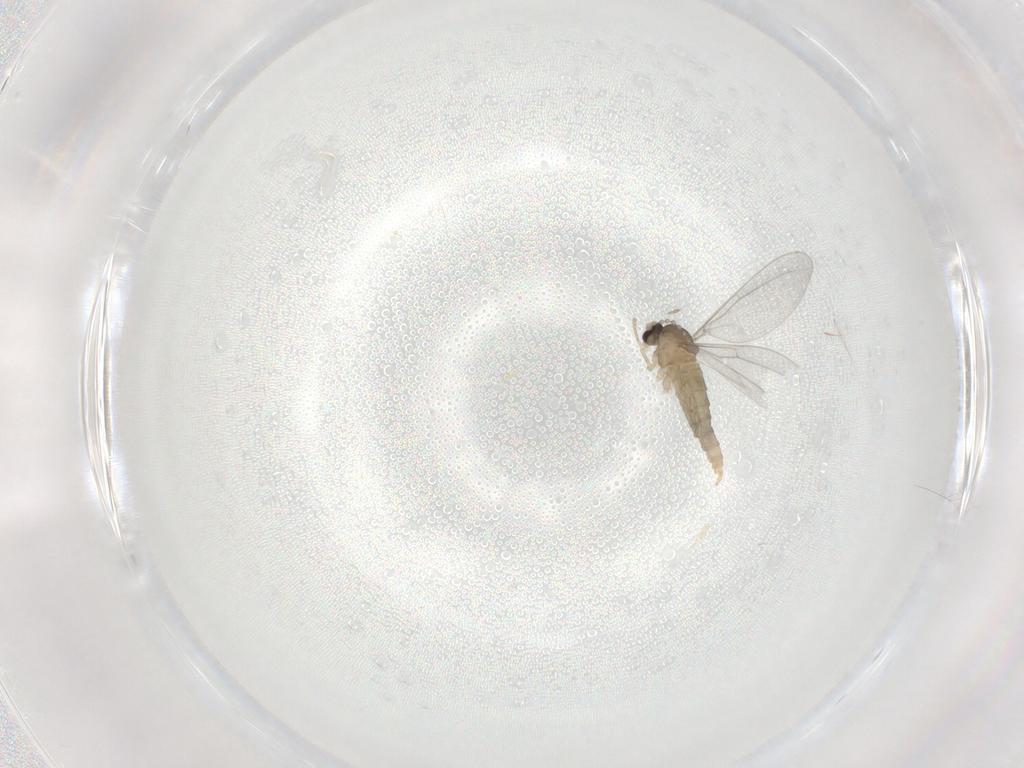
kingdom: Animalia
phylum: Arthropoda
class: Insecta
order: Diptera
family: Cecidomyiidae
